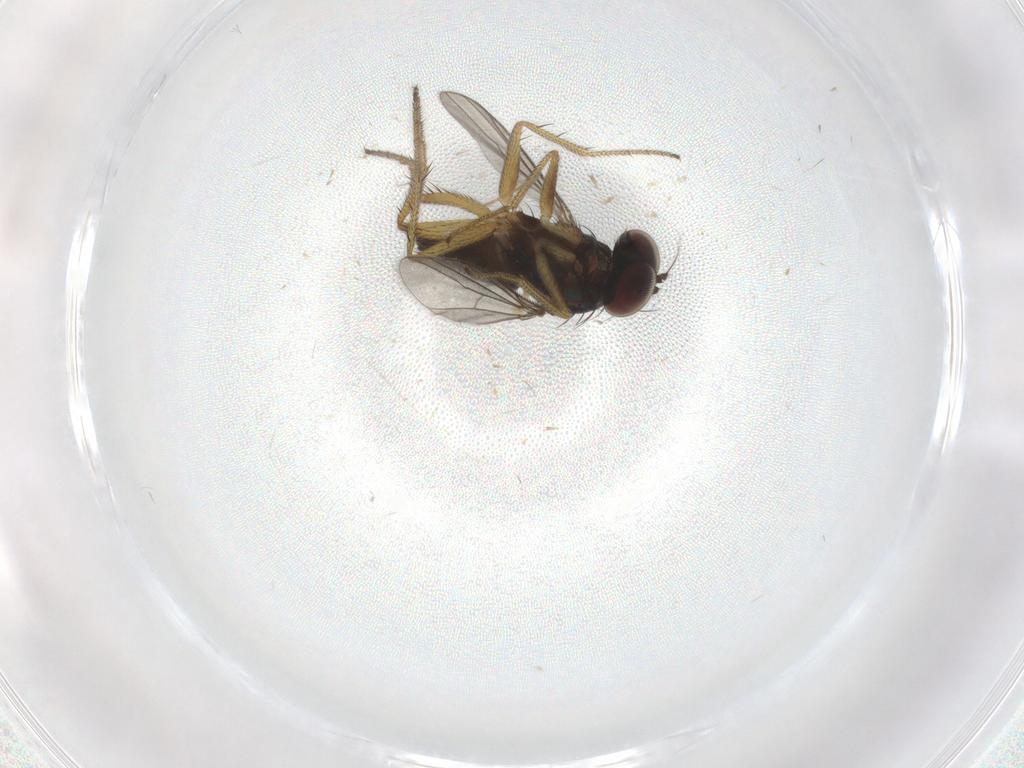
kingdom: Animalia
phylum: Arthropoda
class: Insecta
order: Diptera
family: Dolichopodidae
